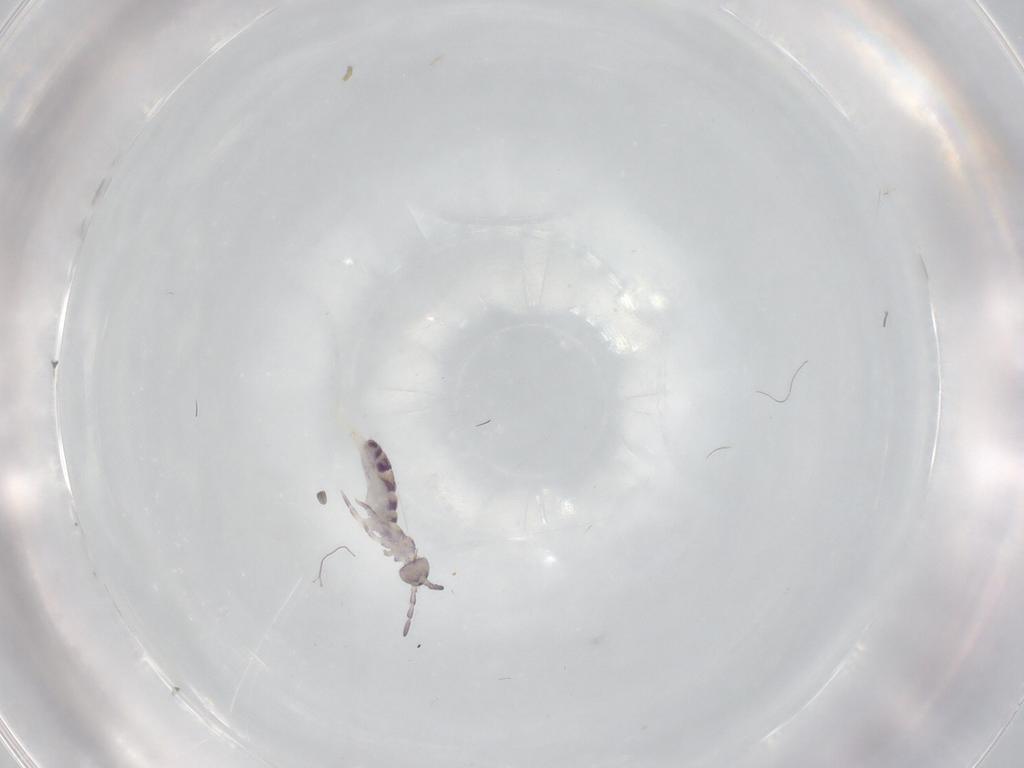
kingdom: Animalia
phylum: Arthropoda
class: Collembola
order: Entomobryomorpha
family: Isotomidae
